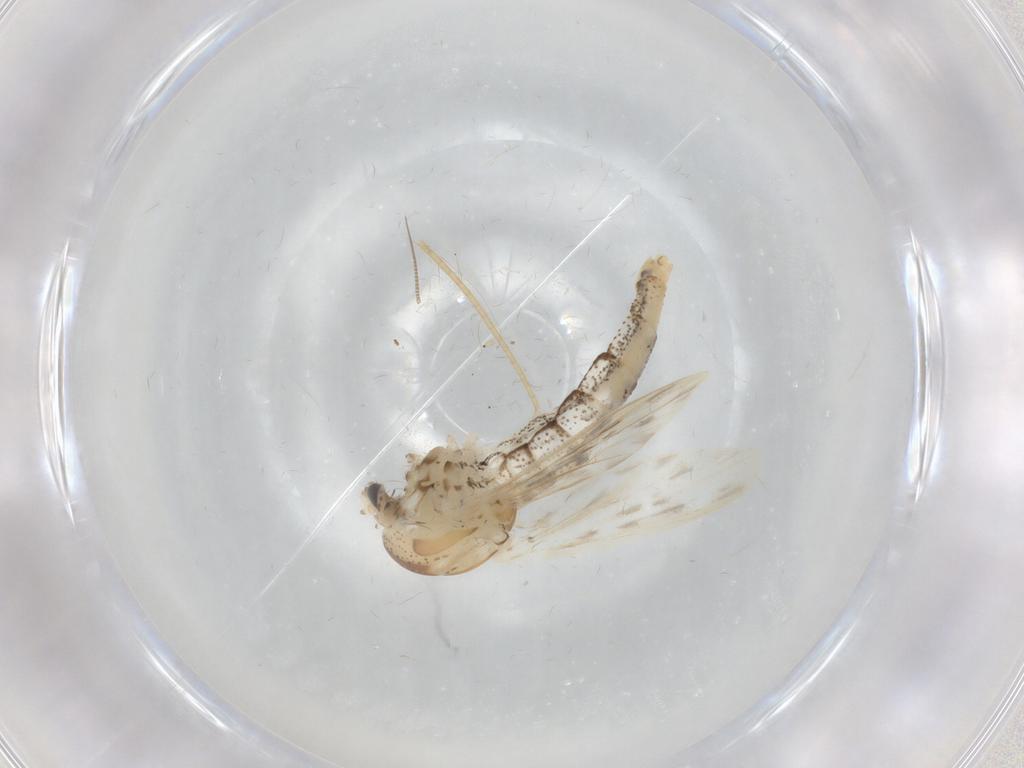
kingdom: Animalia
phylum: Arthropoda
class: Insecta
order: Diptera
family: Chaoboridae
